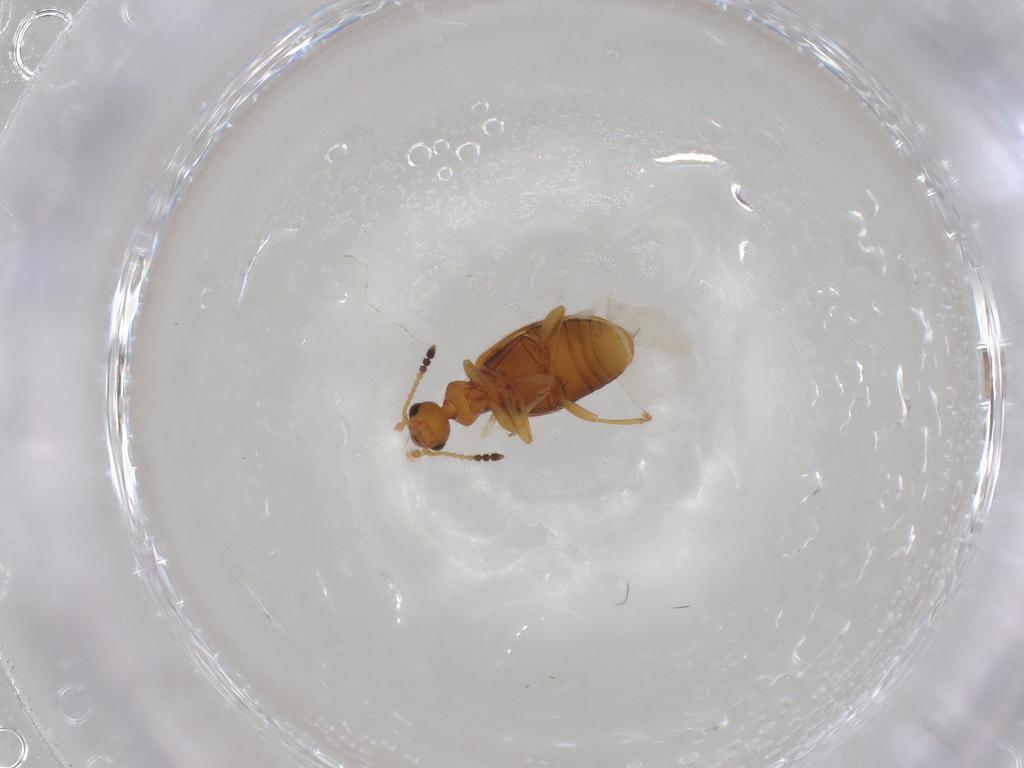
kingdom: Animalia
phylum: Arthropoda
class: Insecta
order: Coleoptera
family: Anthicidae
